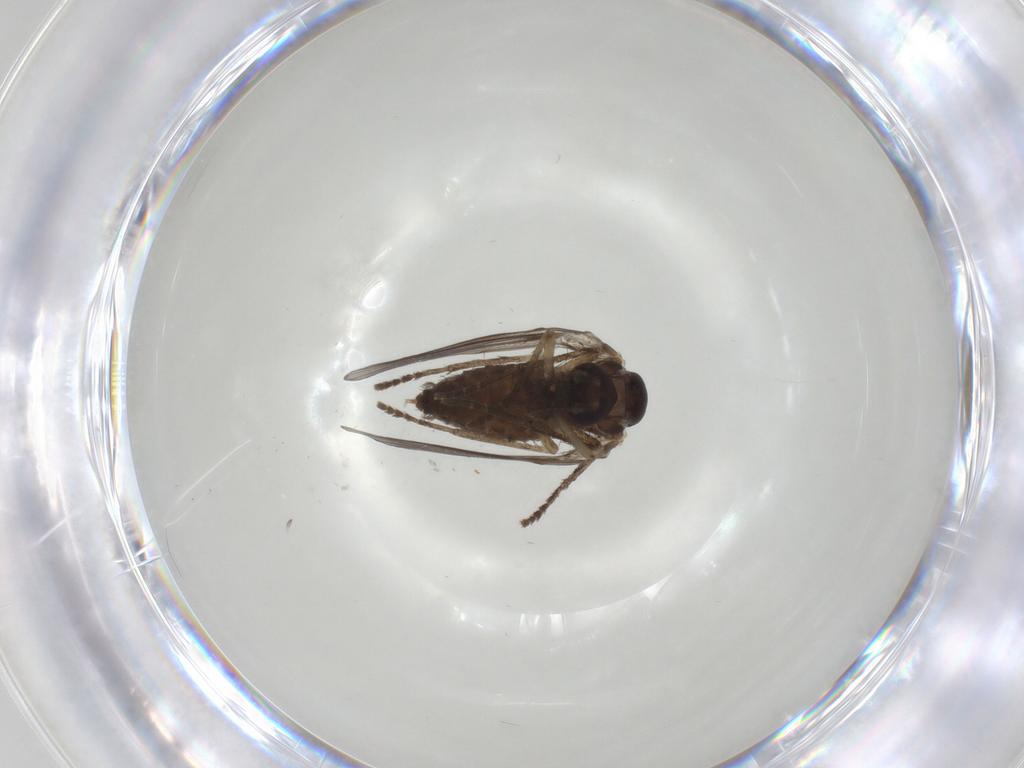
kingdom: Animalia
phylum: Arthropoda
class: Insecta
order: Diptera
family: Psychodidae
